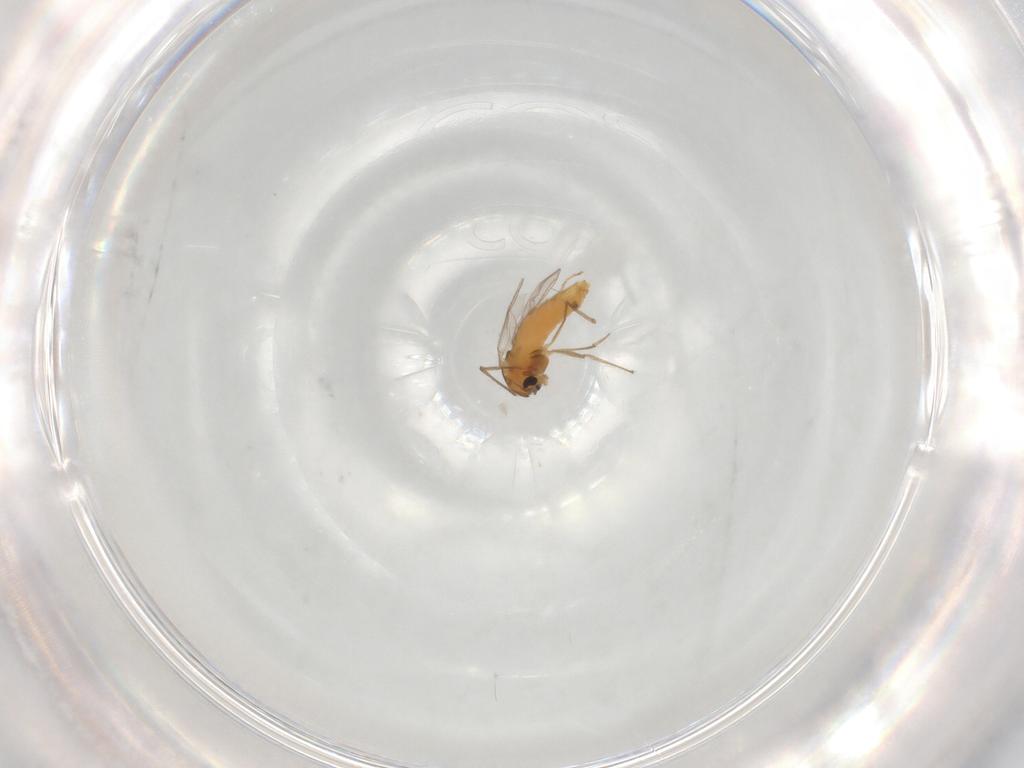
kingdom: Animalia
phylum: Arthropoda
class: Insecta
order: Diptera
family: Chironomidae
